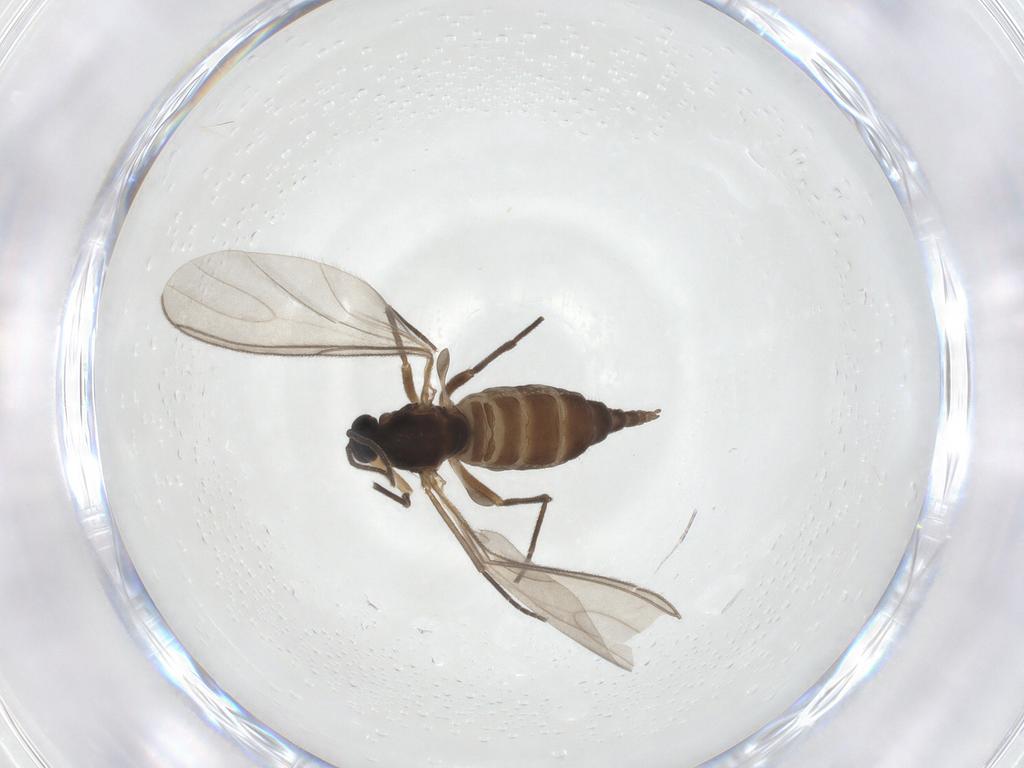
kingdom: Animalia
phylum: Arthropoda
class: Insecta
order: Diptera
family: Sciaridae
